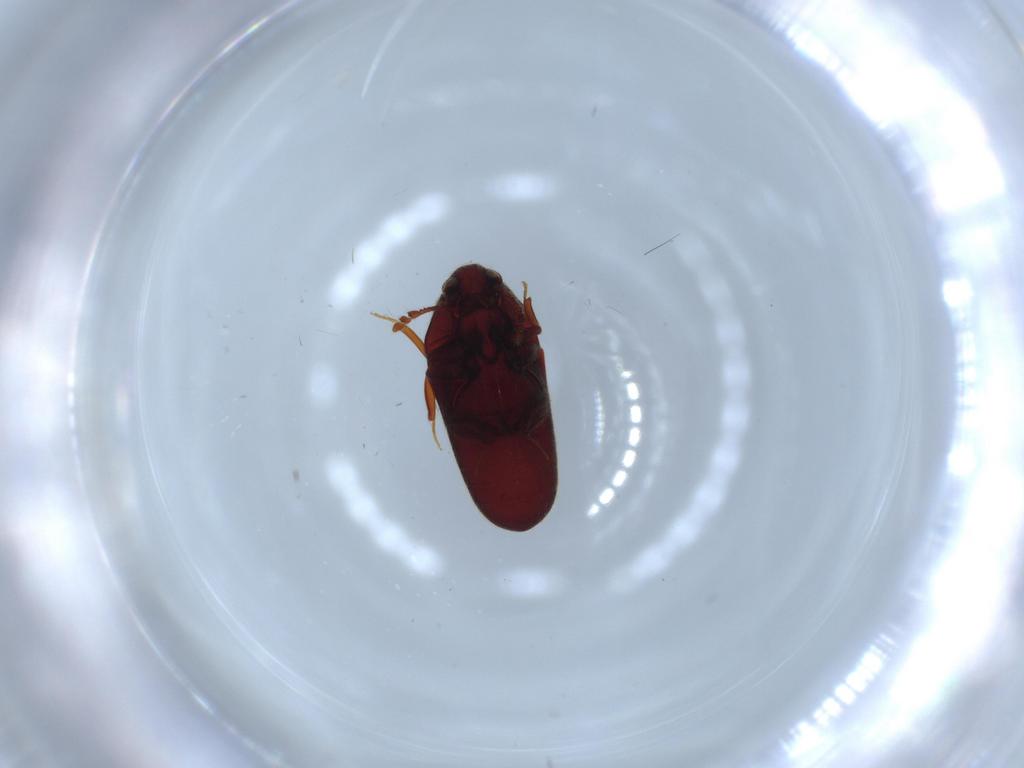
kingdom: Animalia
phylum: Arthropoda
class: Insecta
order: Coleoptera
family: Throscidae
